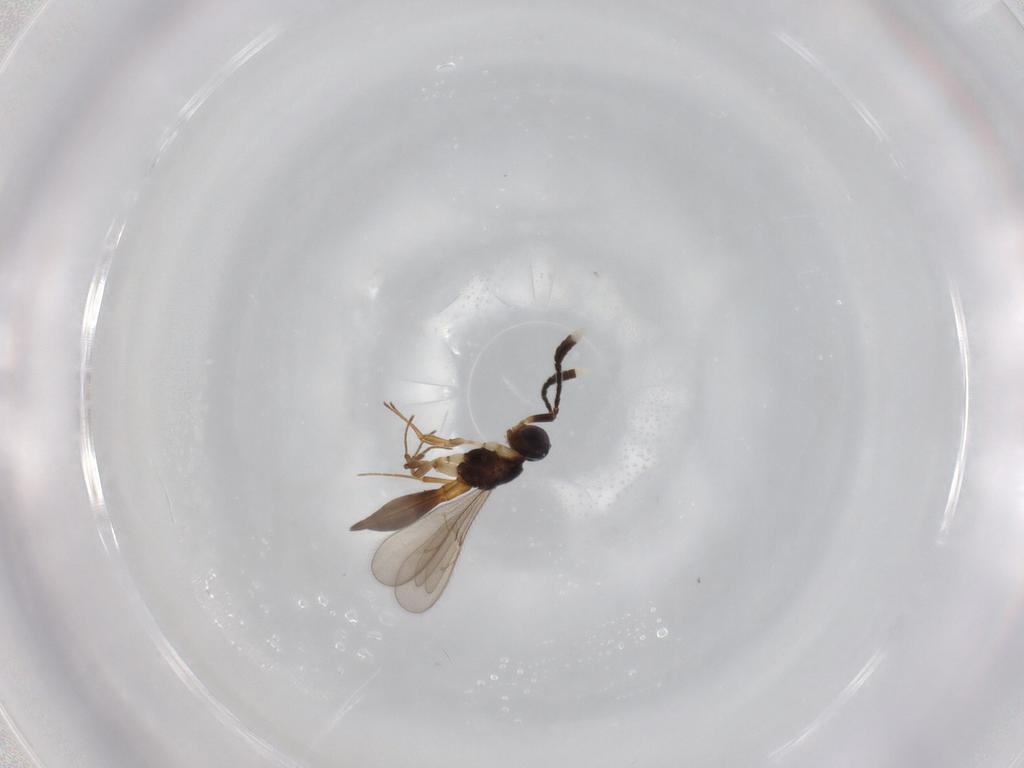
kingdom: Animalia
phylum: Arthropoda
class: Insecta
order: Hymenoptera
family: Scelionidae
